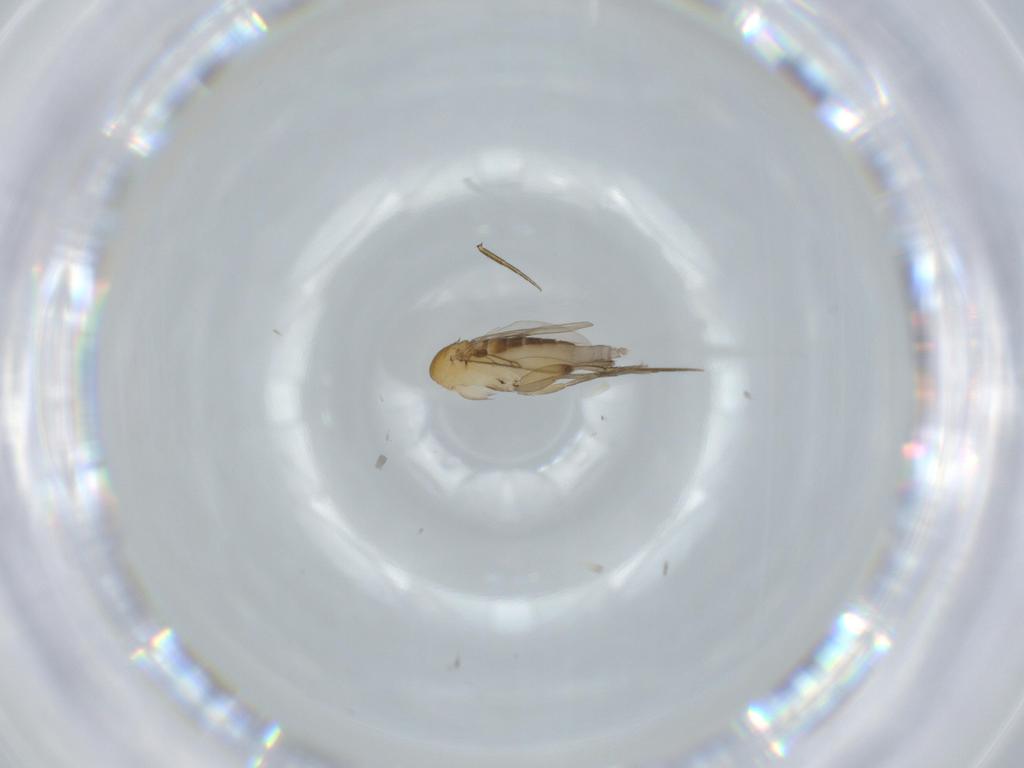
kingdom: Animalia
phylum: Arthropoda
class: Insecta
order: Diptera
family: Phoridae
